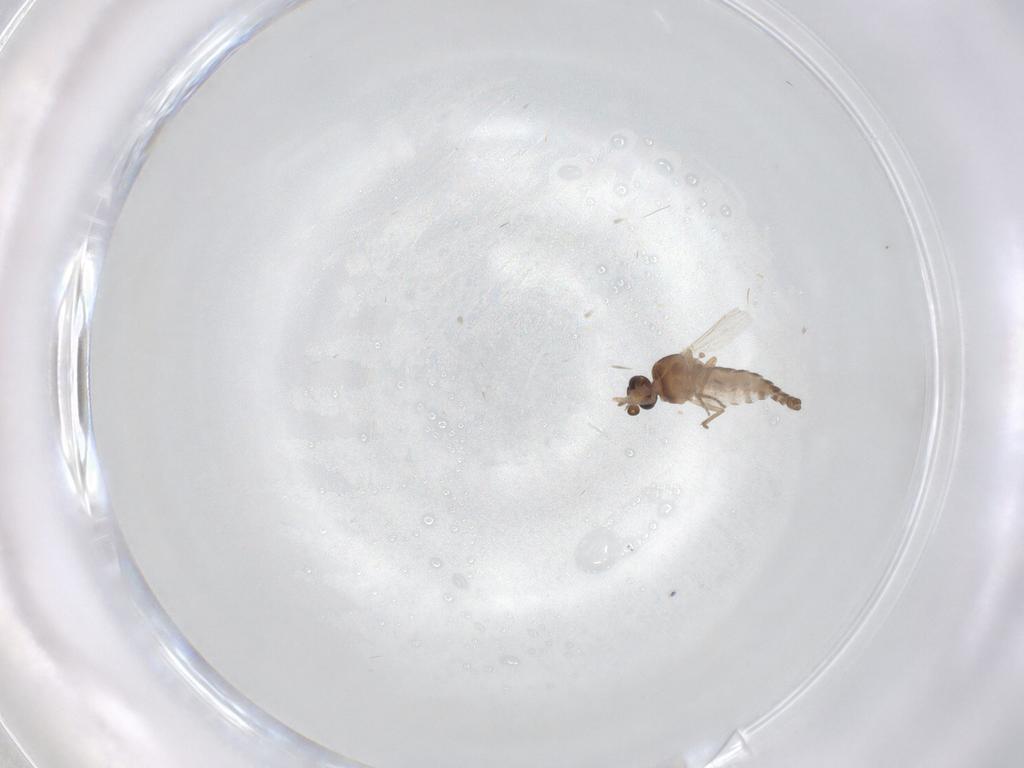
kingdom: Animalia
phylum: Arthropoda
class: Insecta
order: Diptera
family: Ceratopogonidae
